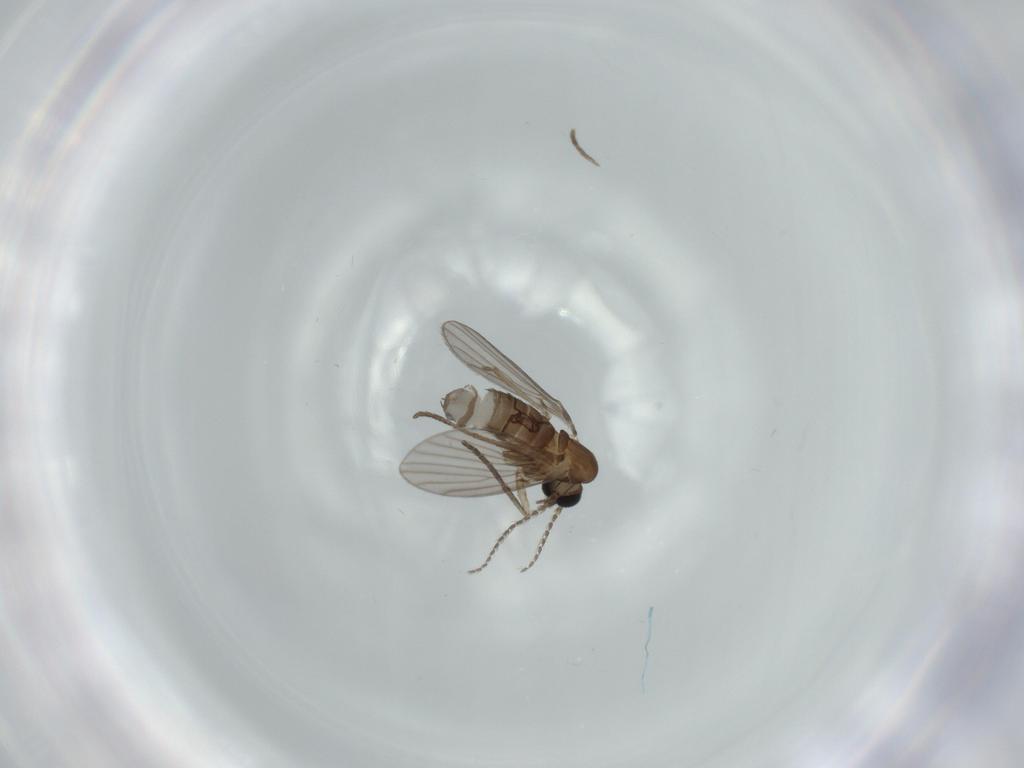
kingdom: Animalia
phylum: Arthropoda
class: Insecta
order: Diptera
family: Psychodidae
